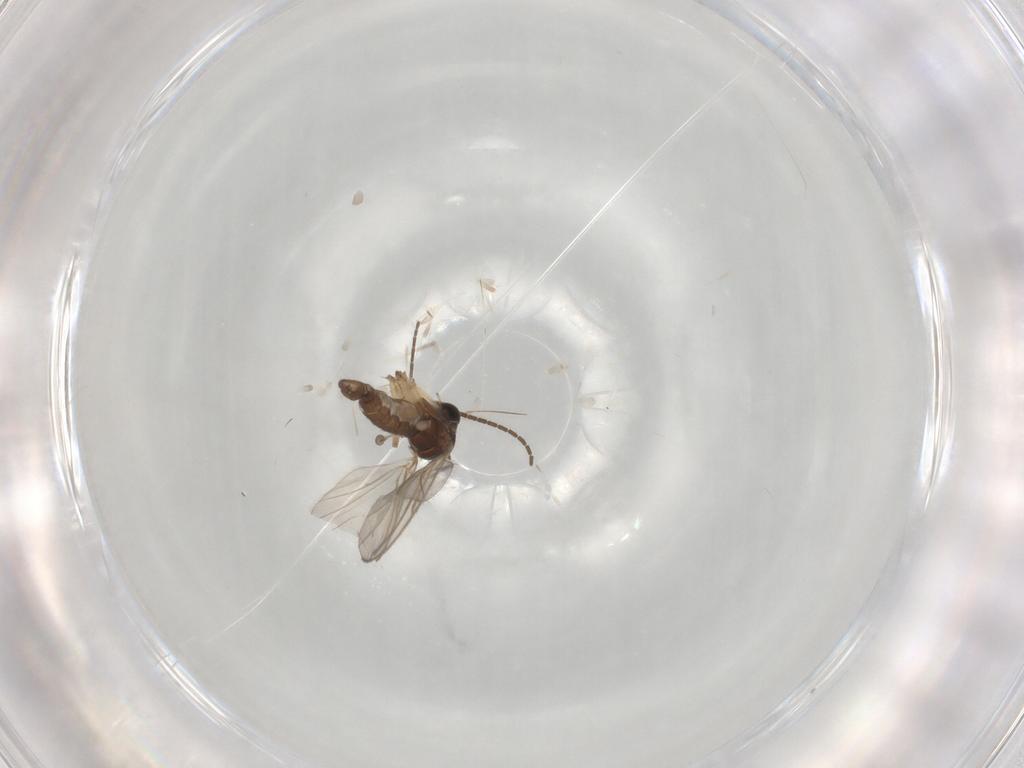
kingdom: Animalia
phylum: Arthropoda
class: Insecta
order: Diptera
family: Sciaridae
